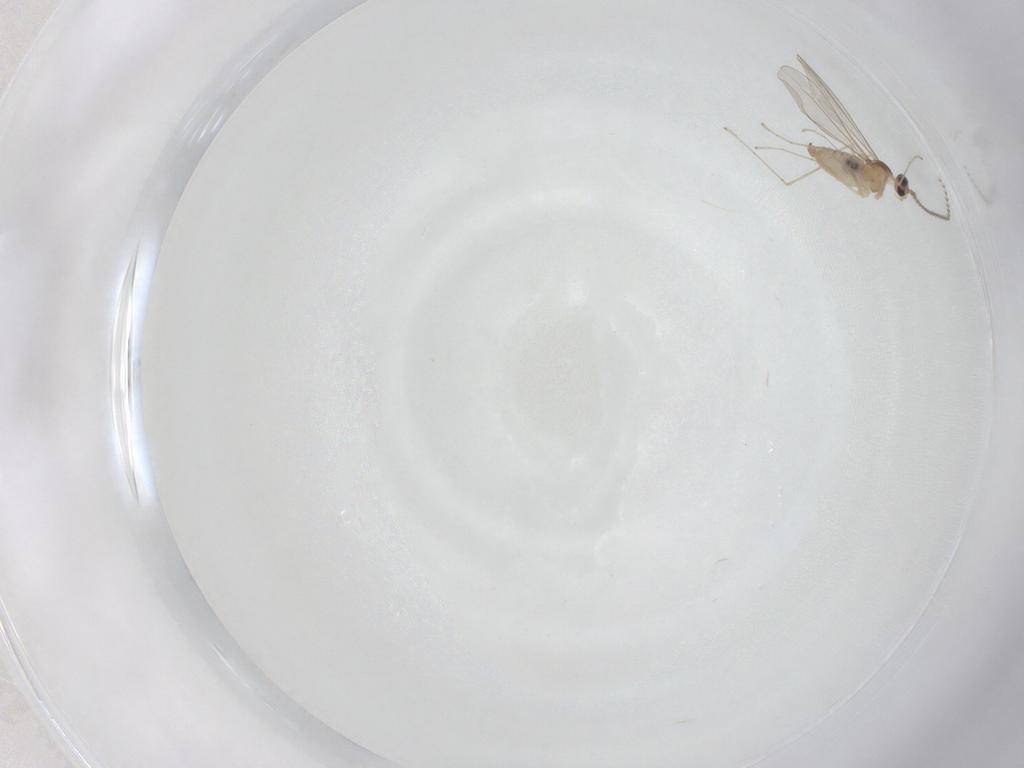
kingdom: Animalia
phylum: Arthropoda
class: Insecta
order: Diptera
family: Cecidomyiidae
